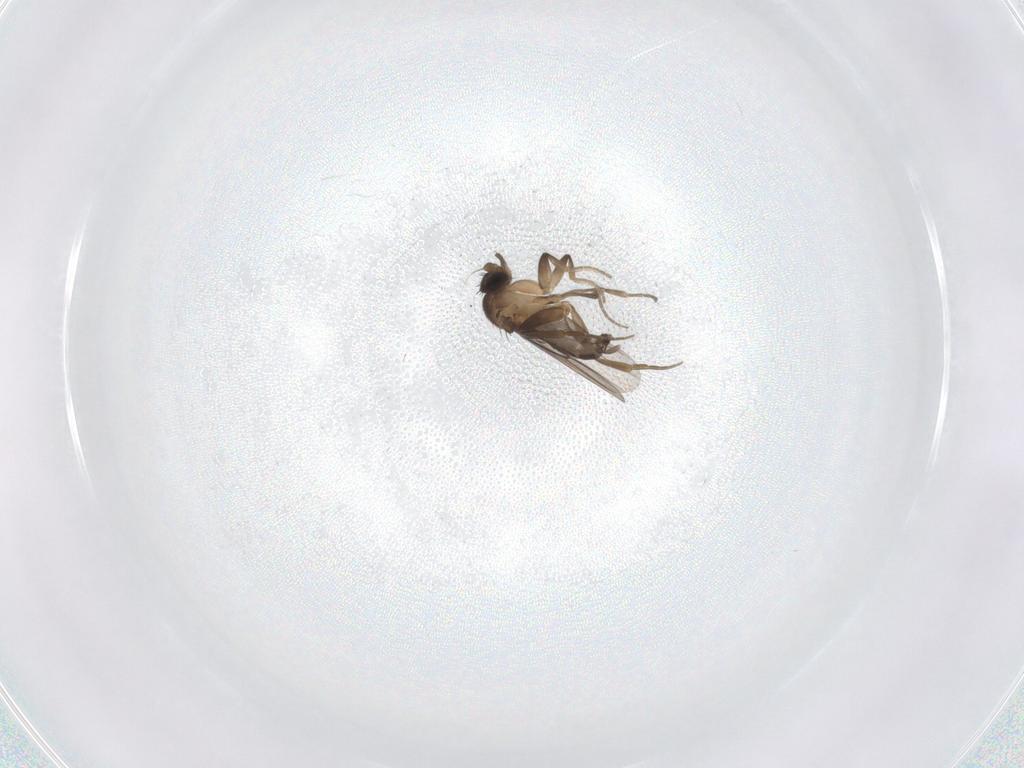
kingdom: Animalia
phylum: Arthropoda
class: Insecta
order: Diptera
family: Phoridae
